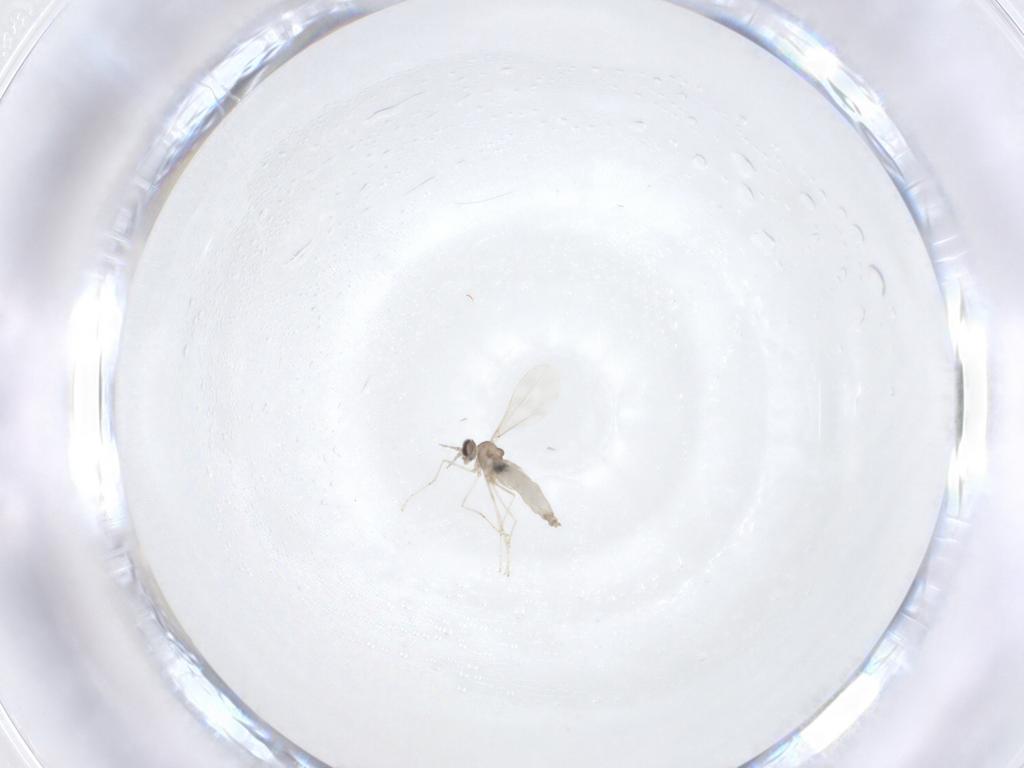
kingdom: Animalia
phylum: Arthropoda
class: Insecta
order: Diptera
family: Cecidomyiidae
